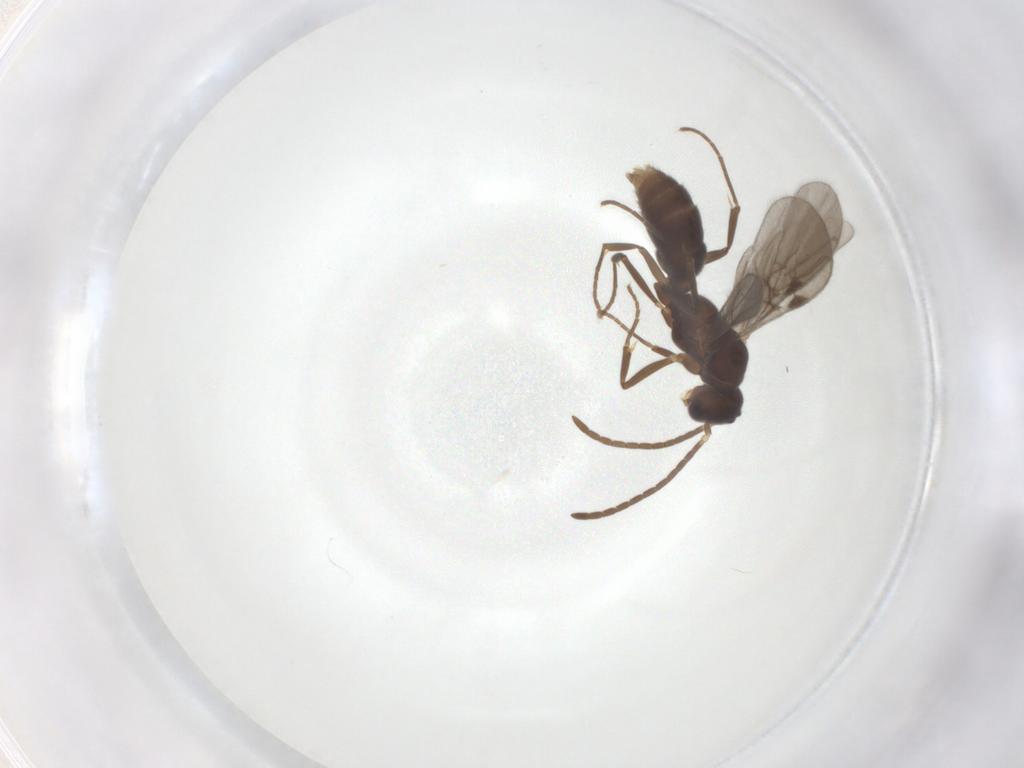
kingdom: Animalia
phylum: Arthropoda
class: Insecta
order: Hymenoptera
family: Formicidae
